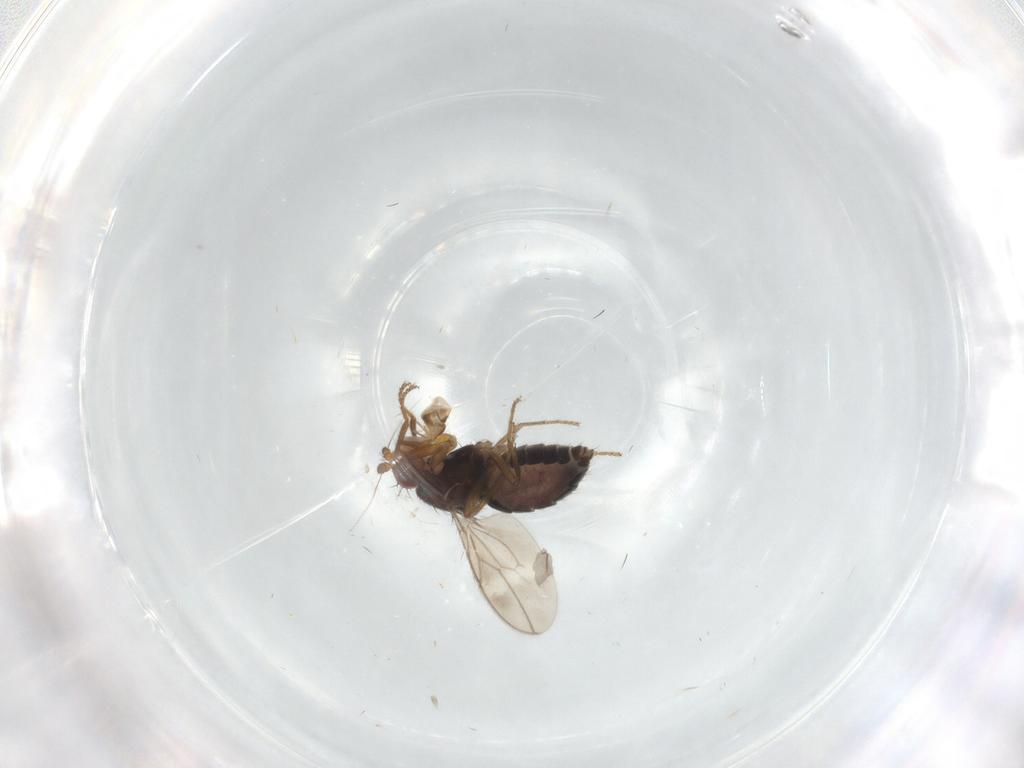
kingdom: Animalia
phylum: Arthropoda
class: Insecta
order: Diptera
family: Sphaeroceridae
